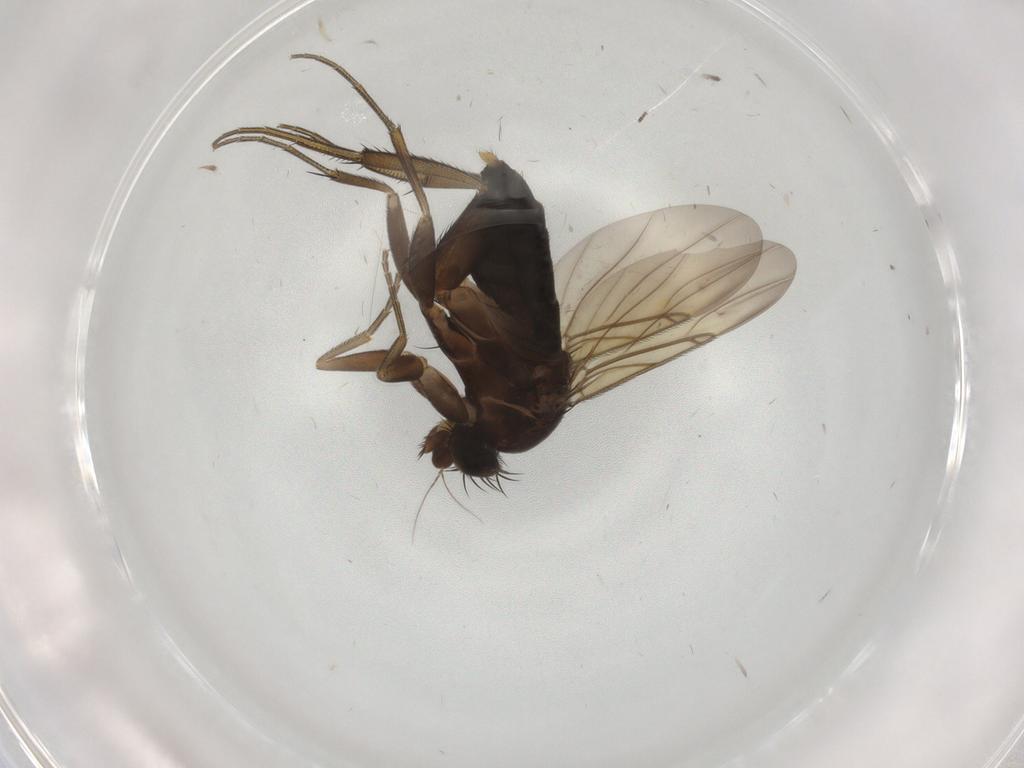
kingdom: Animalia
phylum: Arthropoda
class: Insecta
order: Diptera
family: Phoridae
